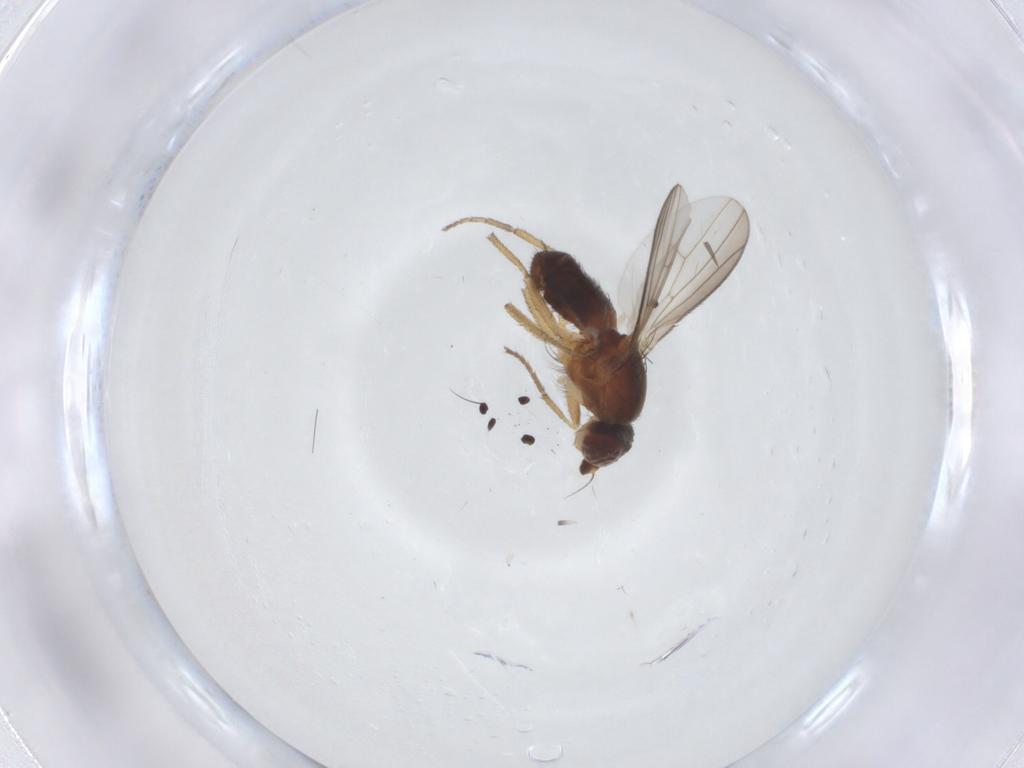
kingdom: Animalia
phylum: Arthropoda
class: Insecta
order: Diptera
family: Heleomyzidae
